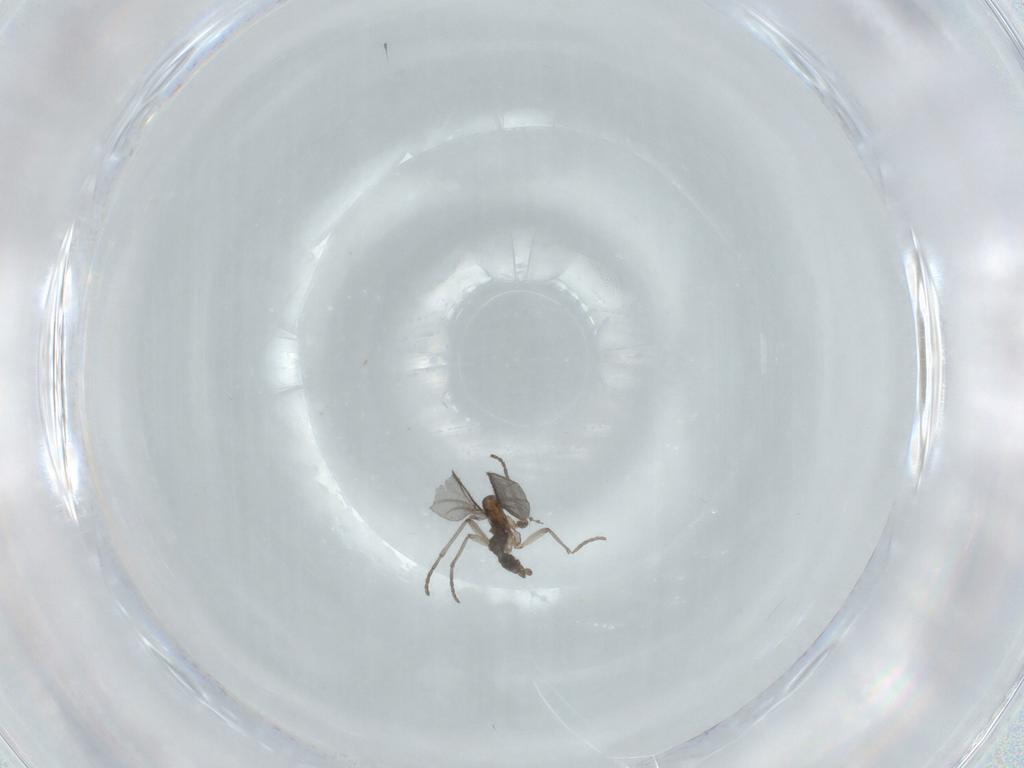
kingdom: Animalia
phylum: Arthropoda
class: Insecta
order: Diptera
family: Sciaridae
